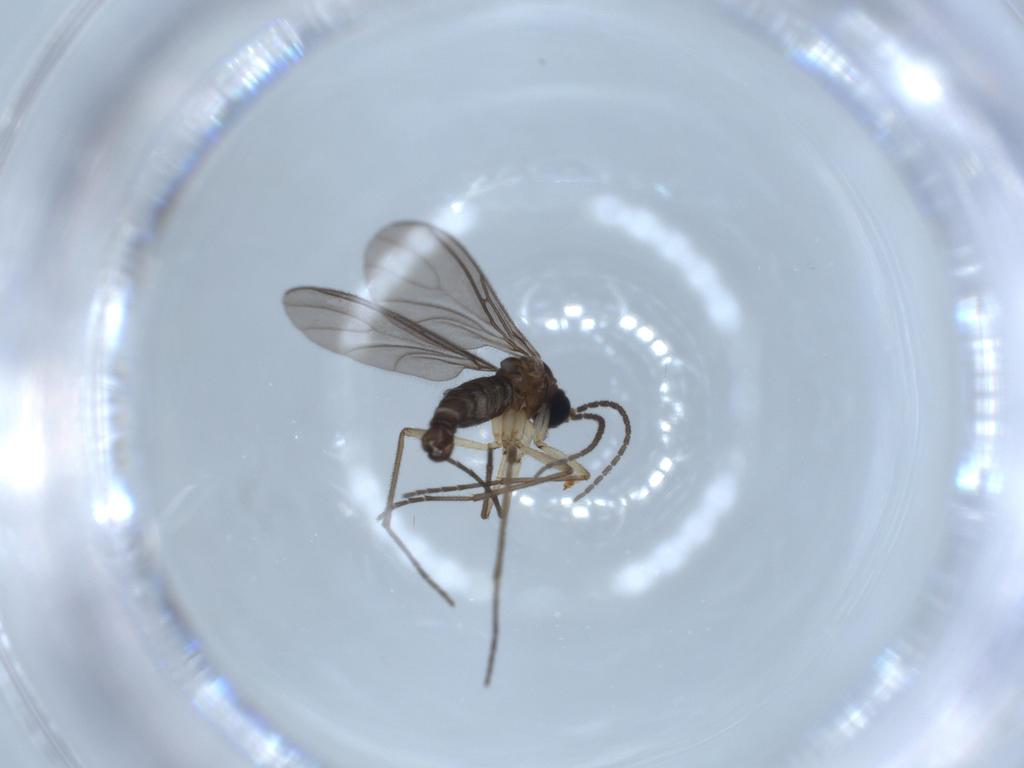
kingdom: Animalia
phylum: Arthropoda
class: Insecta
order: Diptera
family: Sciaridae
